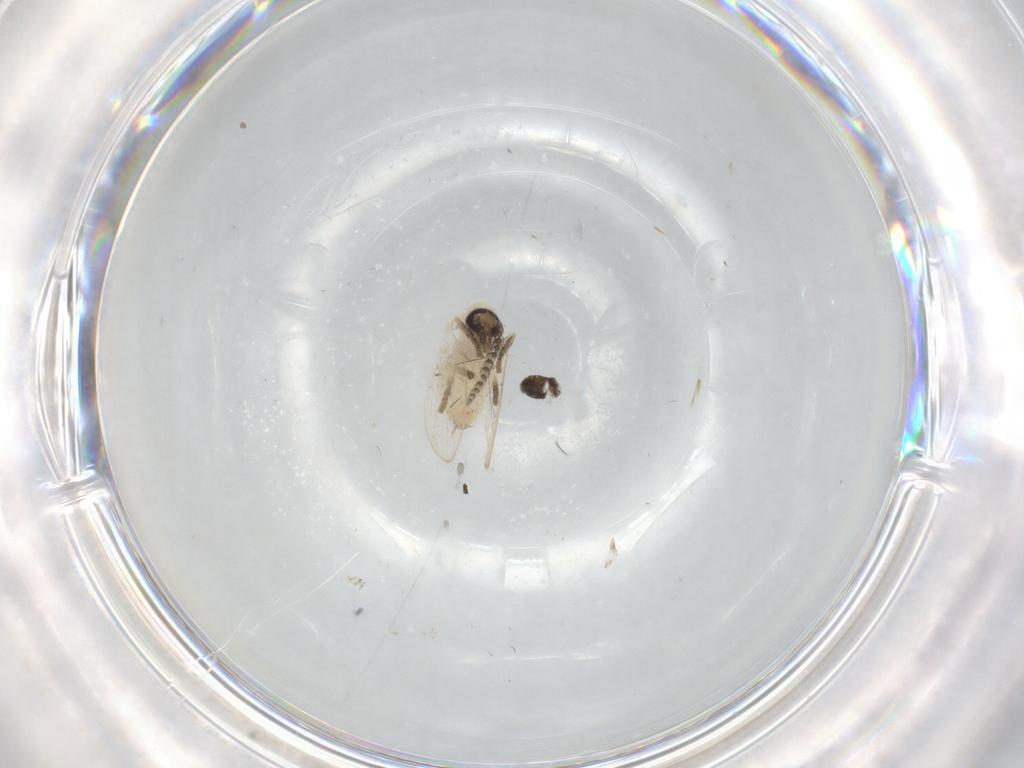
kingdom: Animalia
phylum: Arthropoda
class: Insecta
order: Diptera
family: Psychodidae
